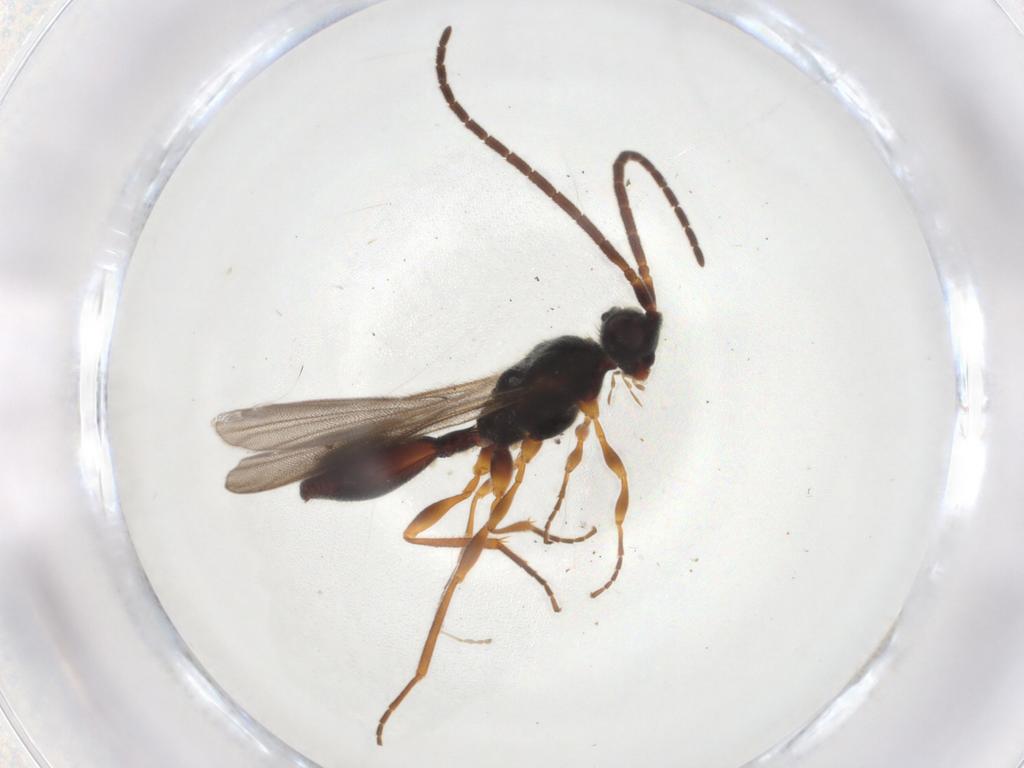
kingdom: Animalia
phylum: Arthropoda
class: Insecta
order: Hymenoptera
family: Diapriidae
